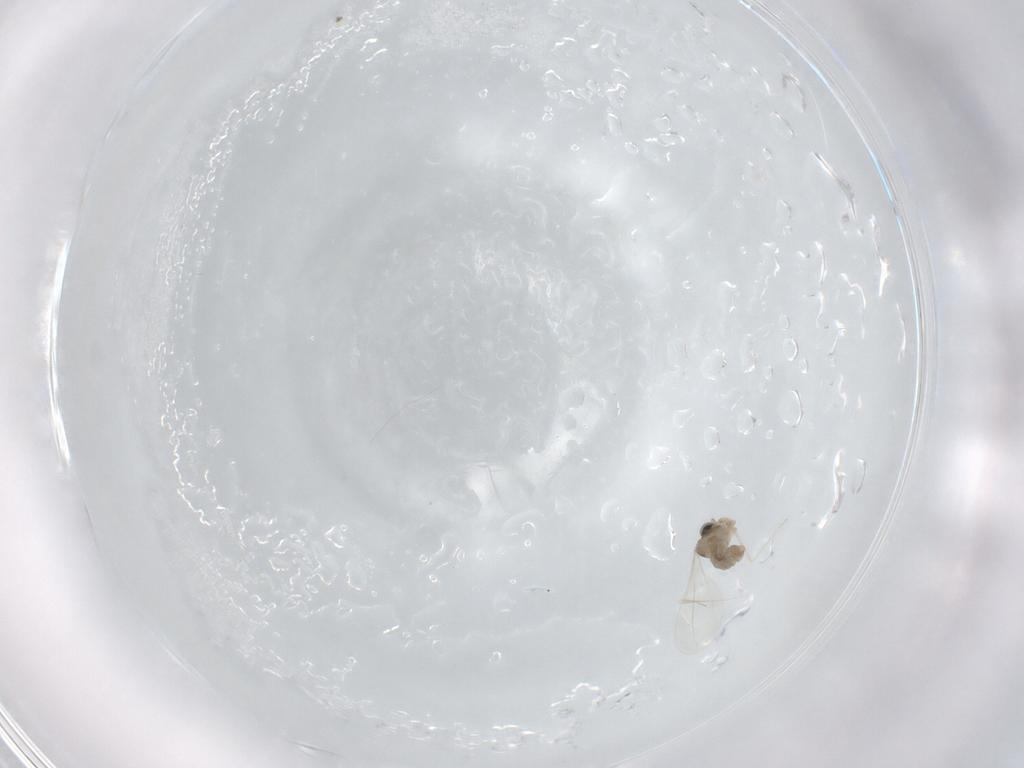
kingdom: Animalia
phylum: Arthropoda
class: Insecta
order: Diptera
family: Cecidomyiidae
